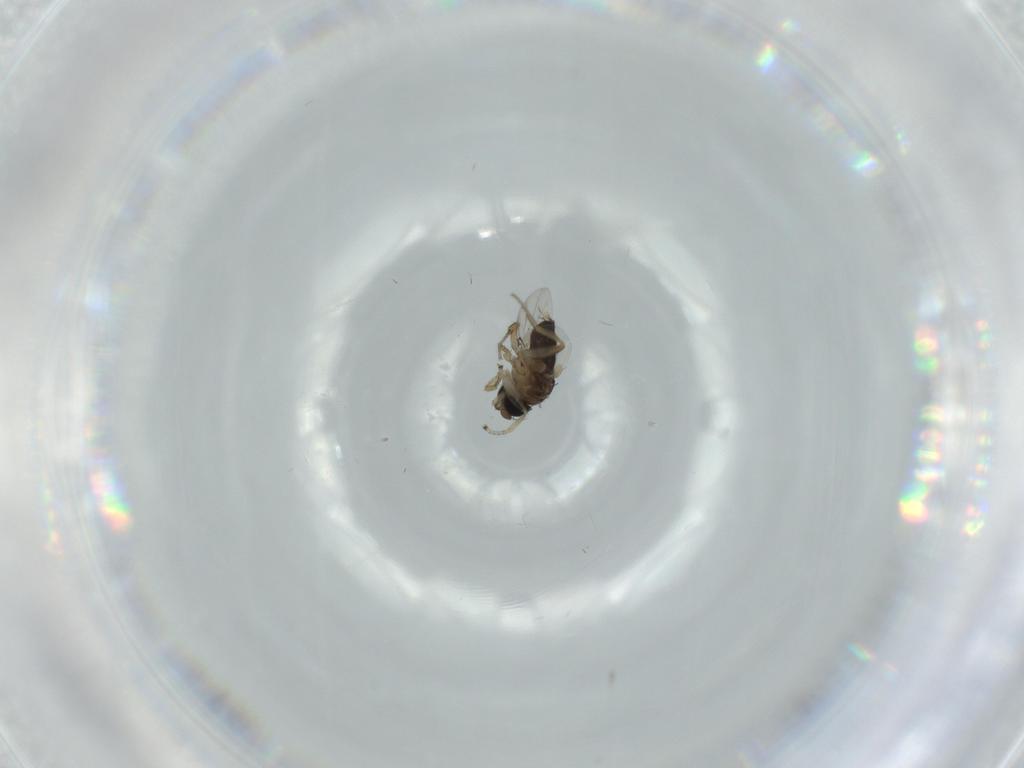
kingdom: Animalia
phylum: Arthropoda
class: Insecta
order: Diptera
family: Phoridae
